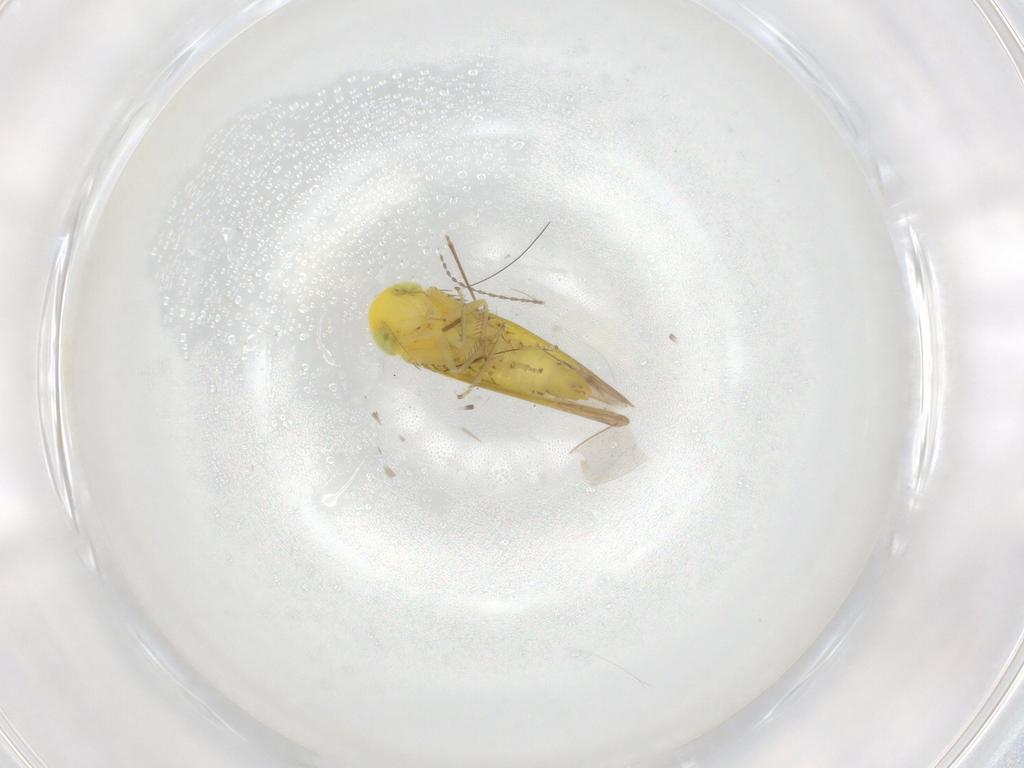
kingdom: Animalia
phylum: Arthropoda
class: Insecta
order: Hemiptera
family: Cicadellidae
